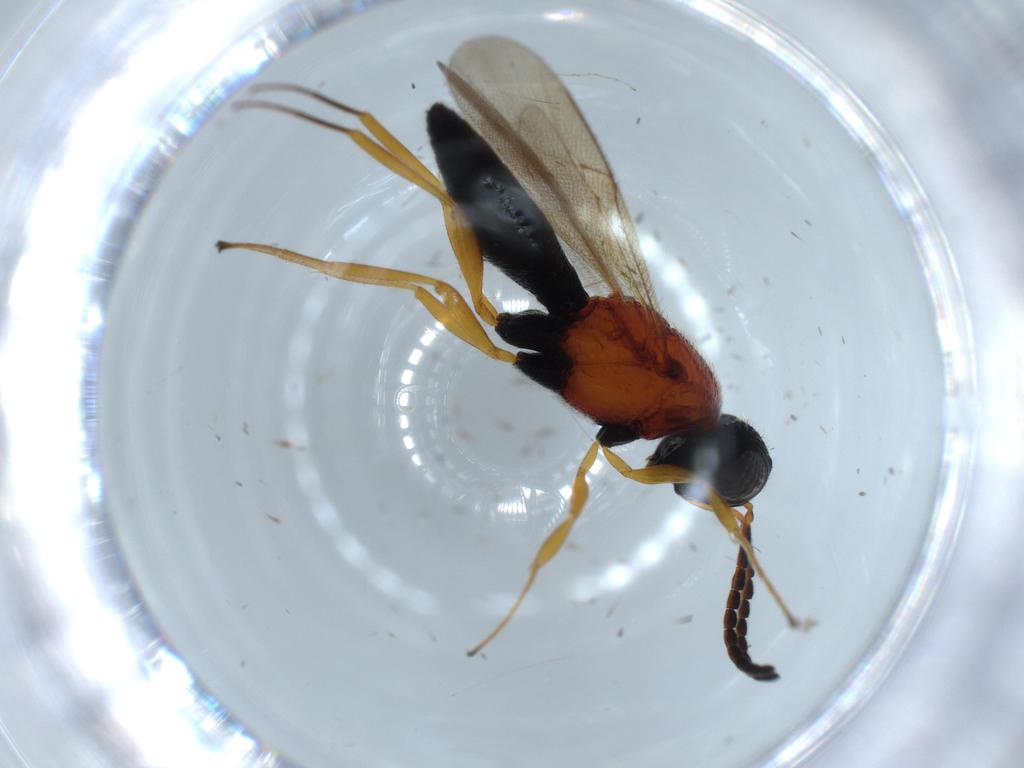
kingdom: Animalia
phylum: Arthropoda
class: Insecta
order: Hymenoptera
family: Scelionidae
